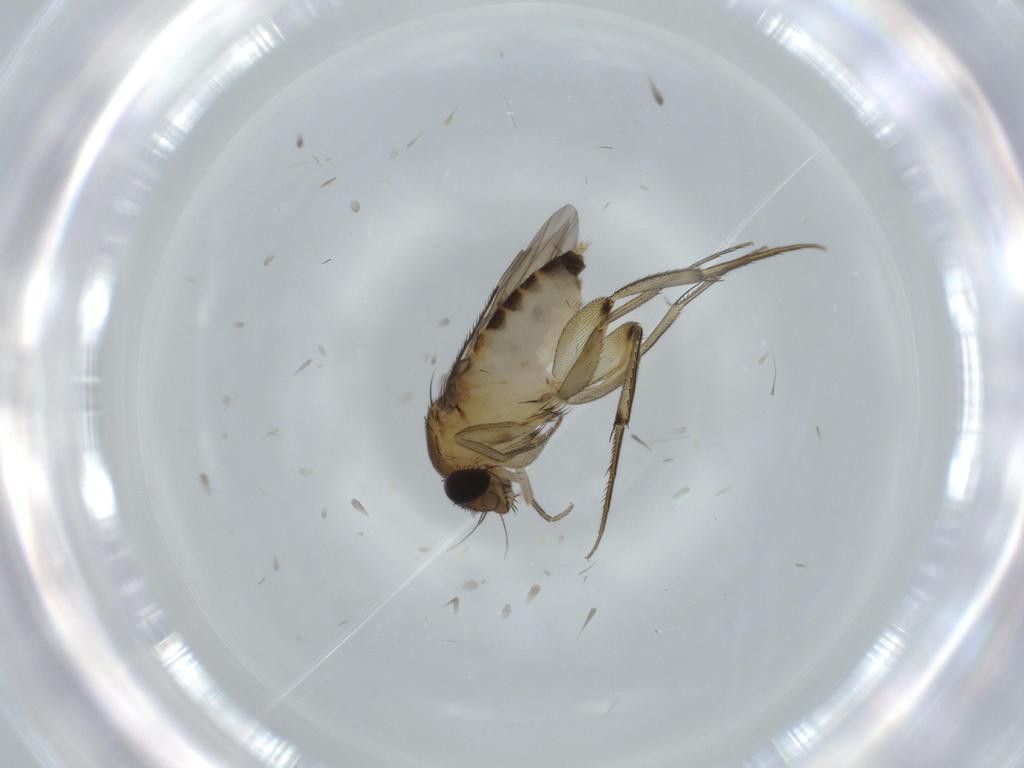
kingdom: Animalia
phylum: Arthropoda
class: Insecta
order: Diptera
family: Phoridae
